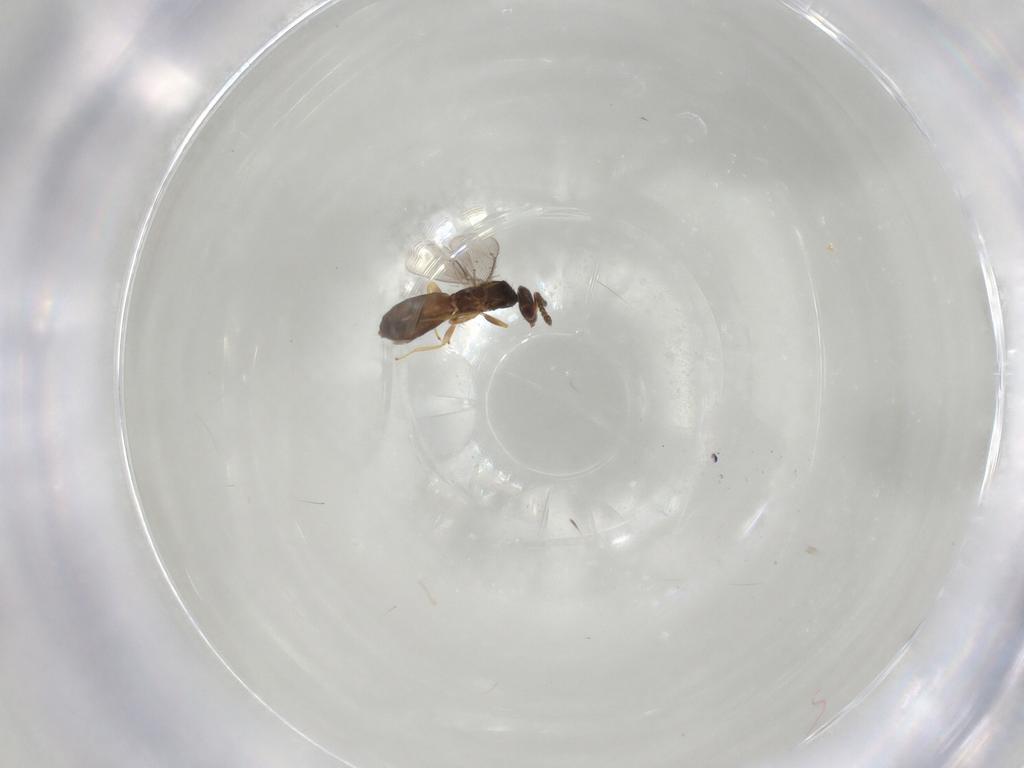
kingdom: Animalia
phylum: Arthropoda
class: Insecta
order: Hymenoptera
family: Eulophidae
